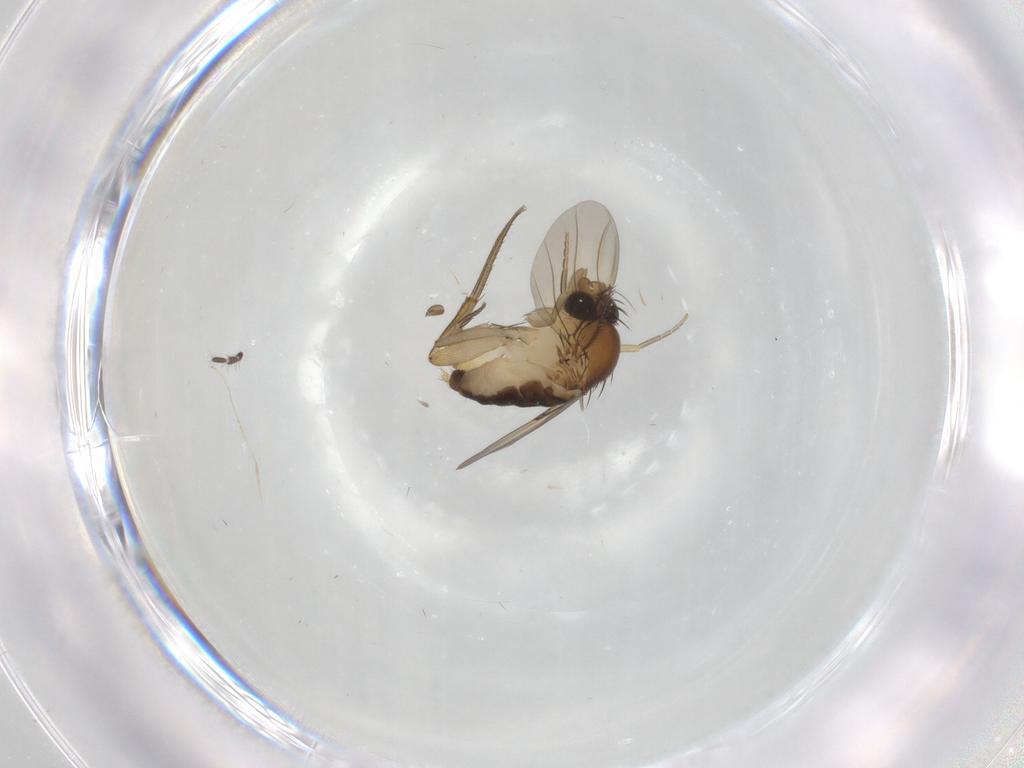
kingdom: Animalia
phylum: Arthropoda
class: Insecta
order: Diptera
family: Phoridae
